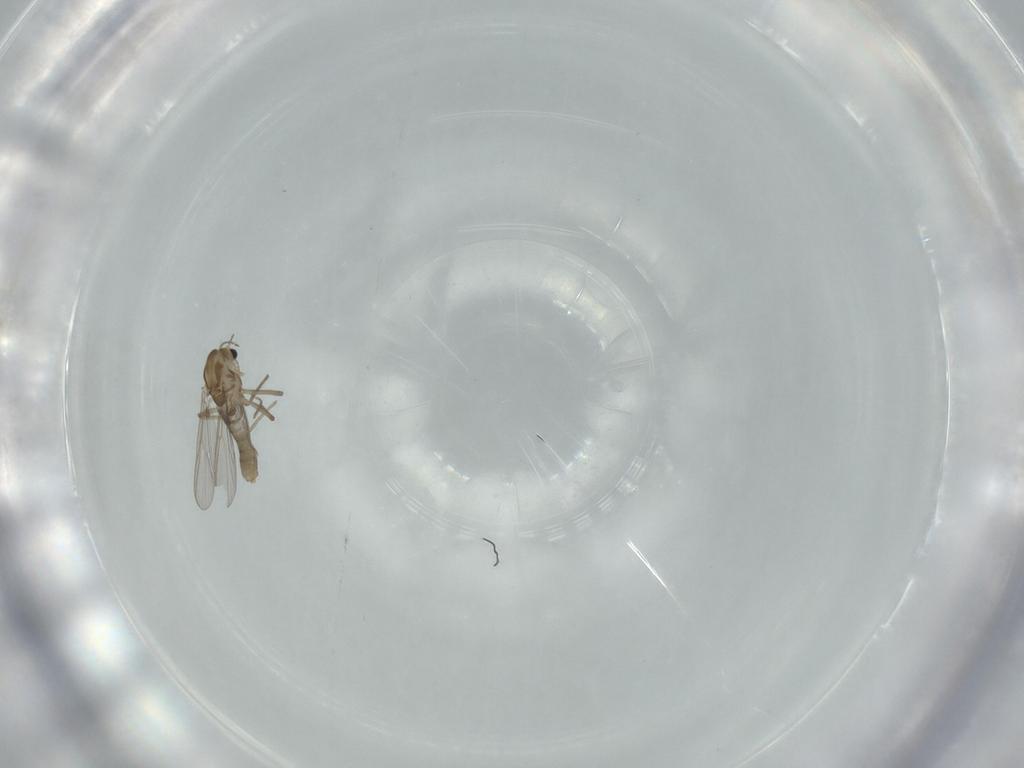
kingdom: Animalia
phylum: Arthropoda
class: Insecta
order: Diptera
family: Chironomidae
